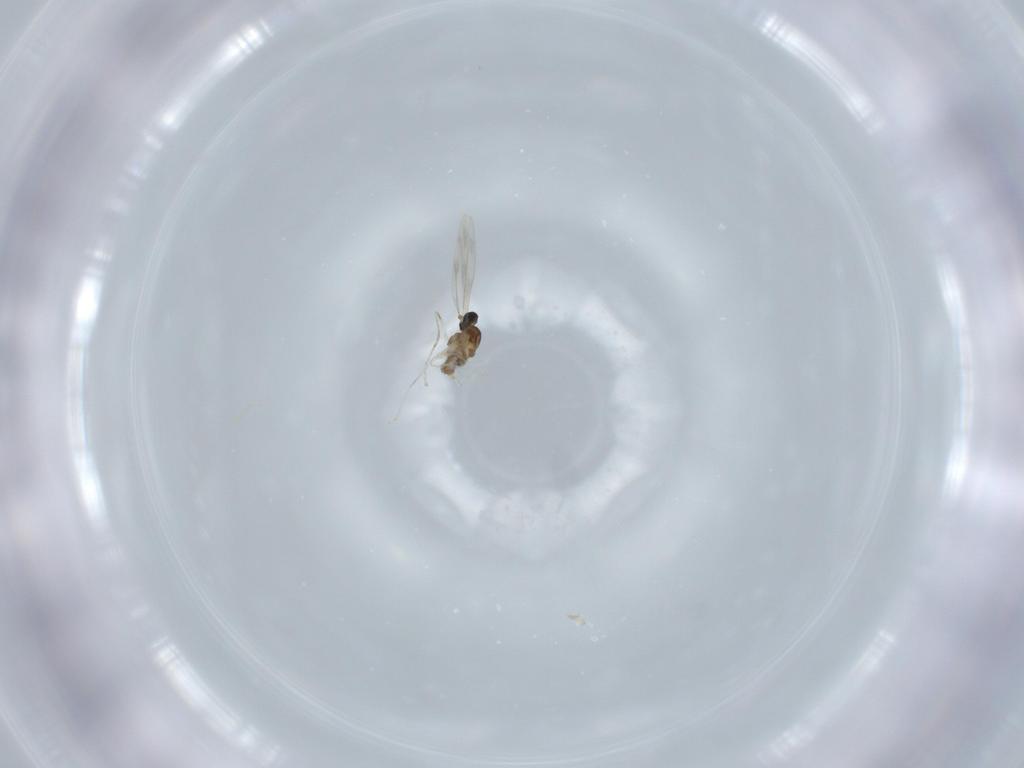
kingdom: Animalia
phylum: Arthropoda
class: Insecta
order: Diptera
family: Cecidomyiidae
